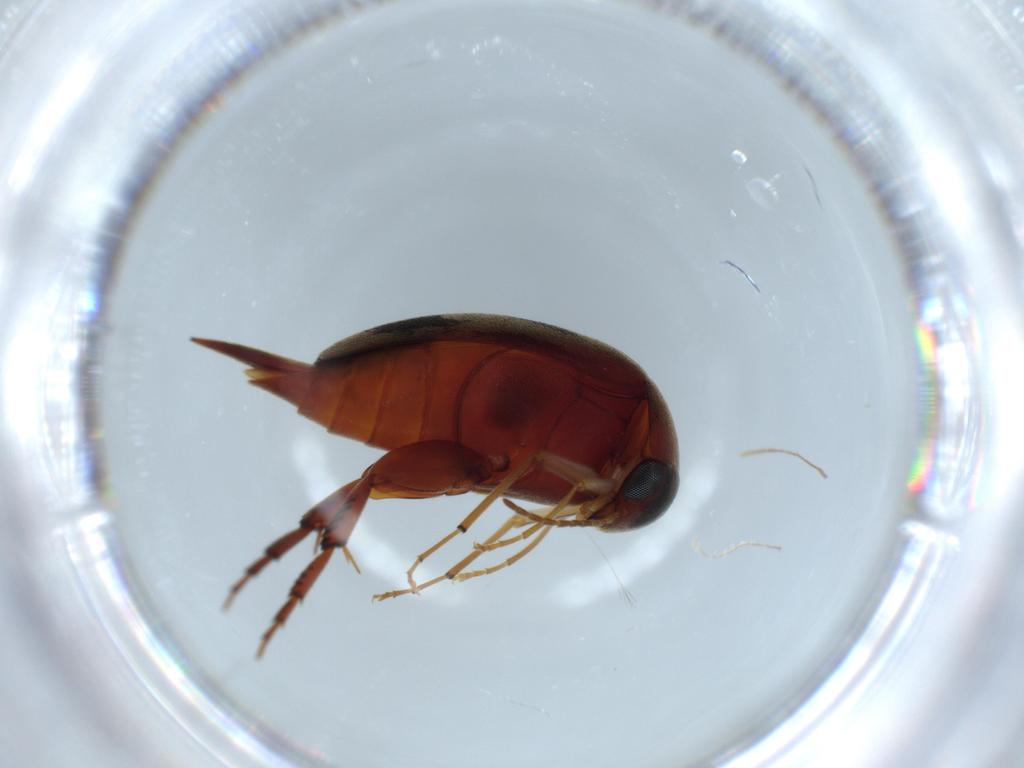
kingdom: Animalia
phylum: Arthropoda
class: Insecta
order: Coleoptera
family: Mordellidae
